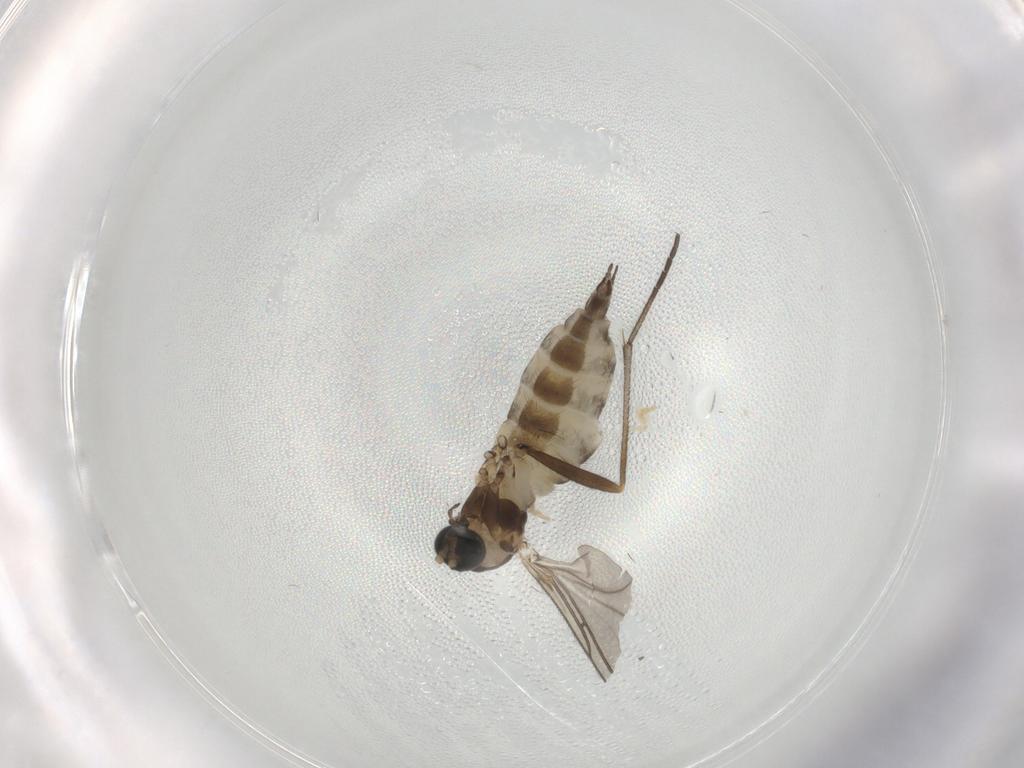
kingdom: Animalia
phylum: Arthropoda
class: Insecta
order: Diptera
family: Sciaridae
